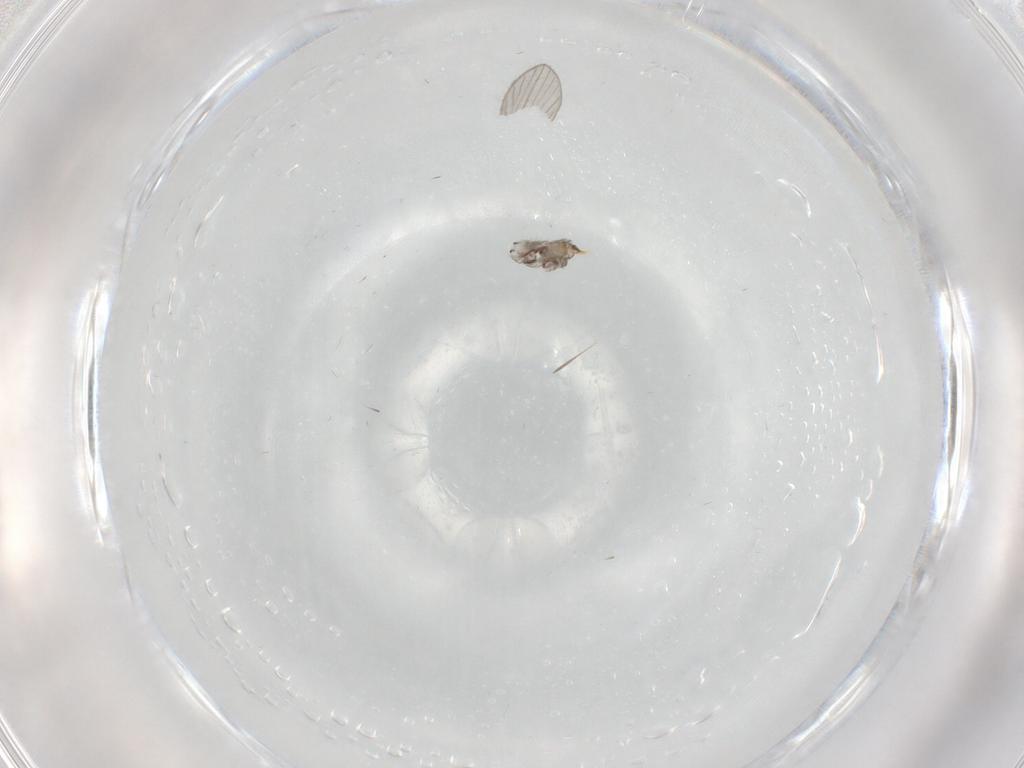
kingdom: Animalia
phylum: Arthropoda
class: Insecta
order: Diptera
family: Psychodidae
